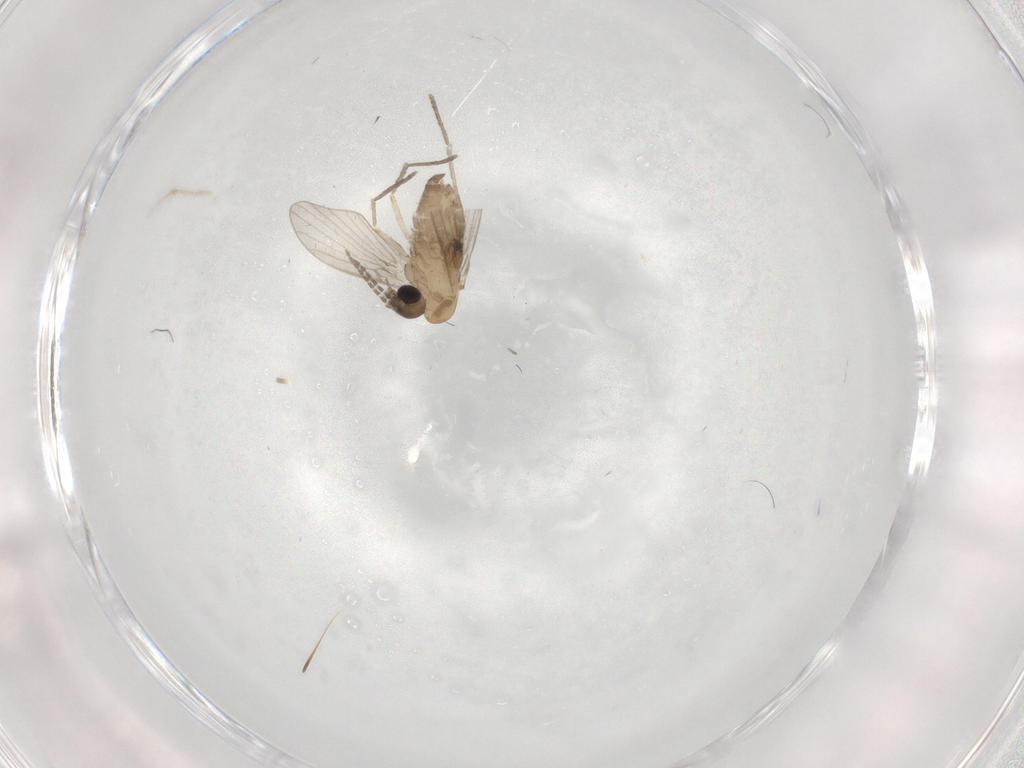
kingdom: Animalia
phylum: Arthropoda
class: Insecta
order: Diptera
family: Psychodidae
